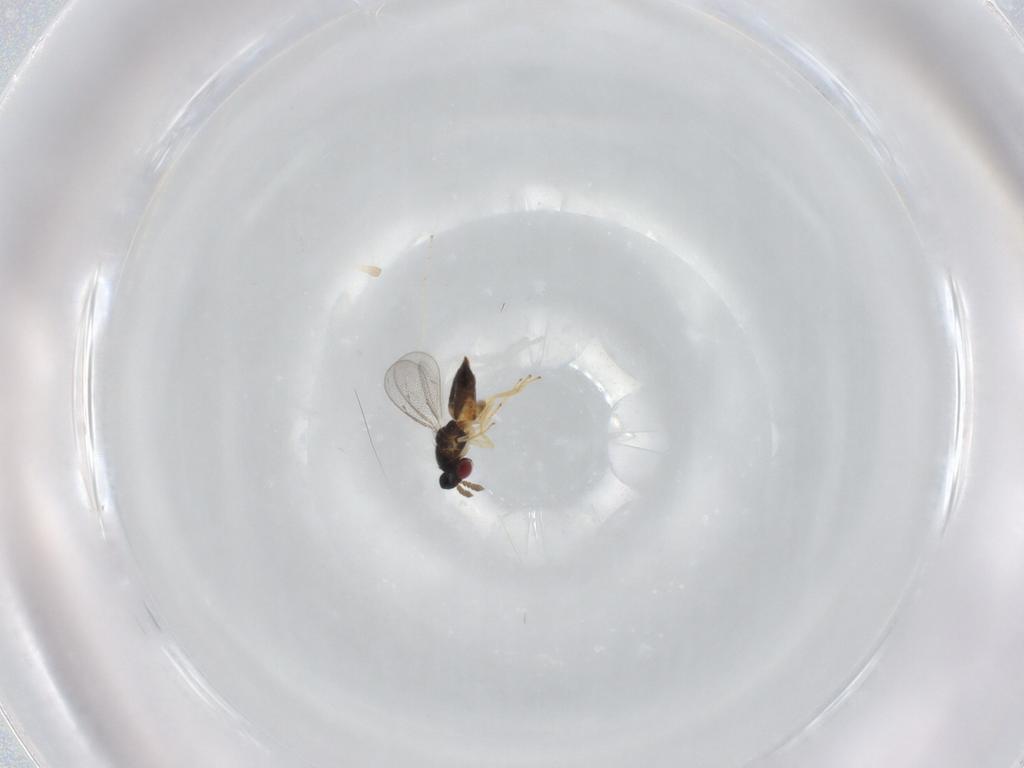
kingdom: Animalia
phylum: Arthropoda
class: Insecta
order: Hymenoptera
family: Eulophidae
